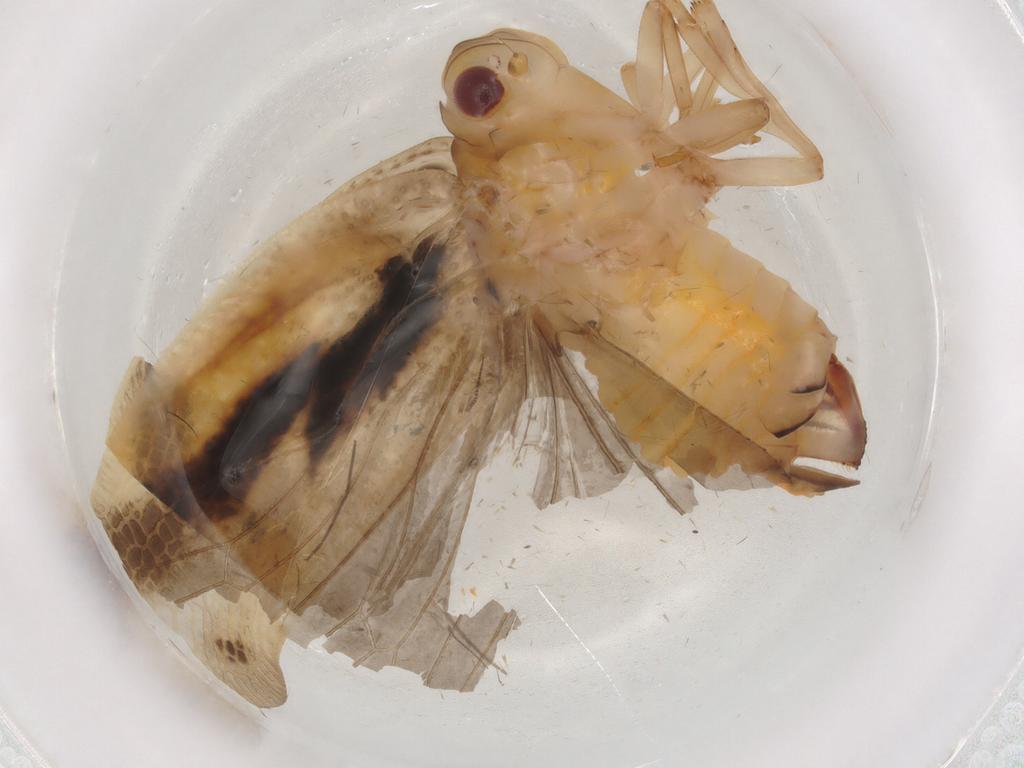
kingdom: Animalia
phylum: Arthropoda
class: Insecta
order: Hemiptera
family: Flatidae
